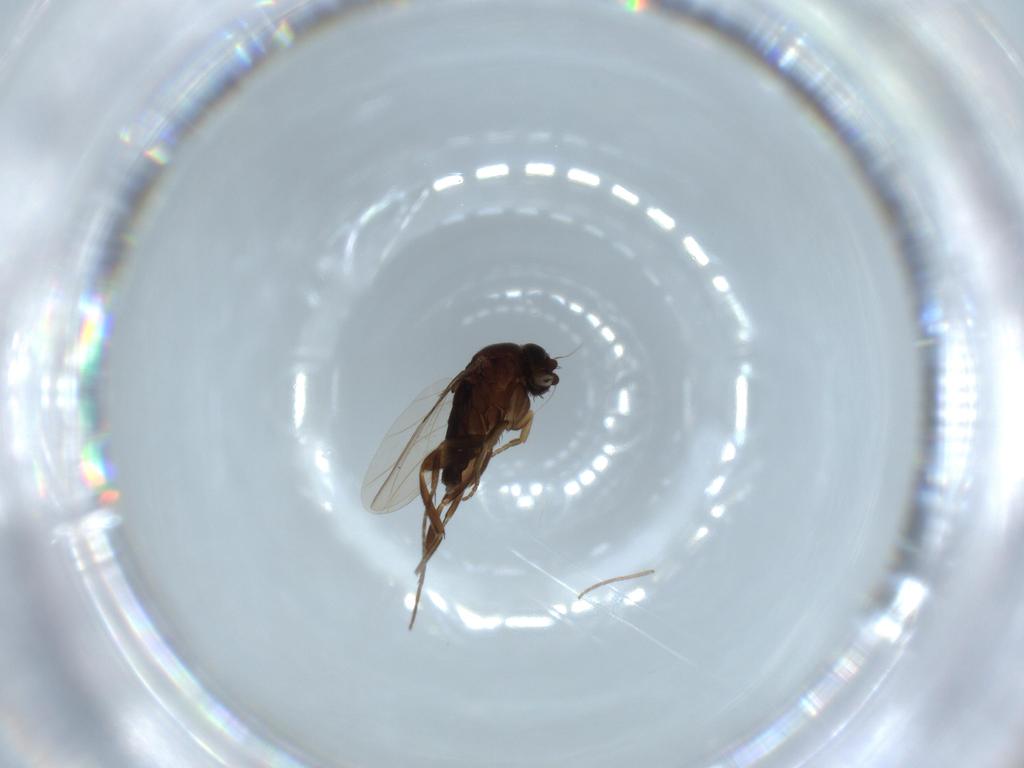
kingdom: Animalia
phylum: Arthropoda
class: Insecta
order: Diptera
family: Phoridae
